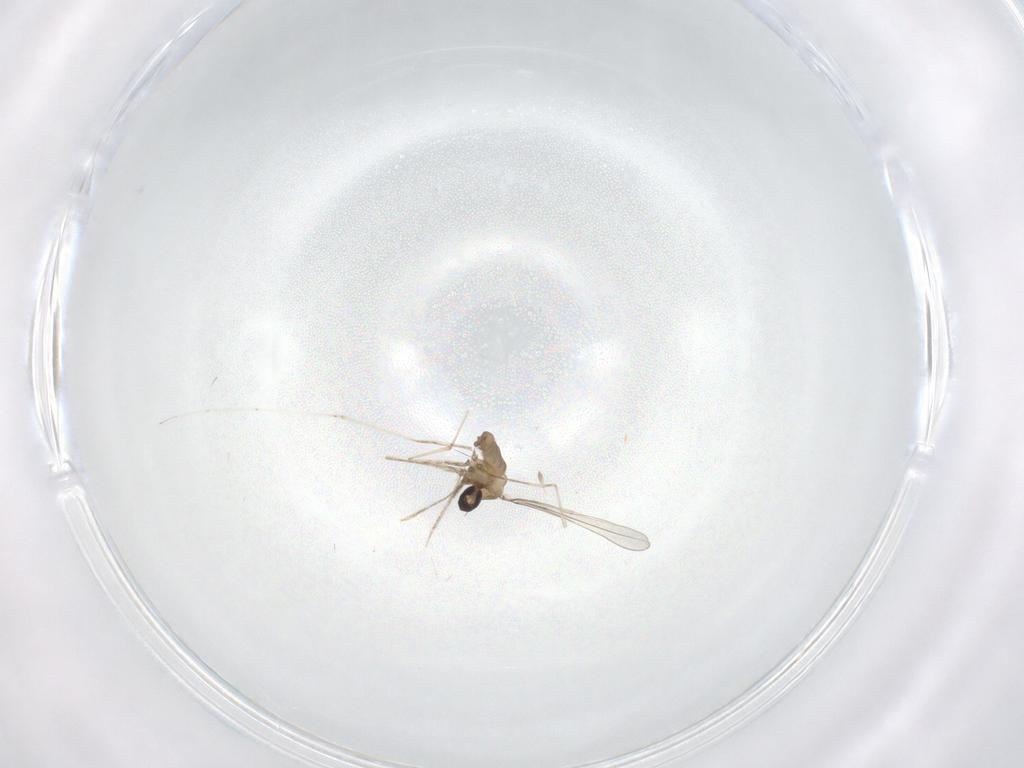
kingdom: Animalia
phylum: Arthropoda
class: Insecta
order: Diptera
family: Cecidomyiidae
